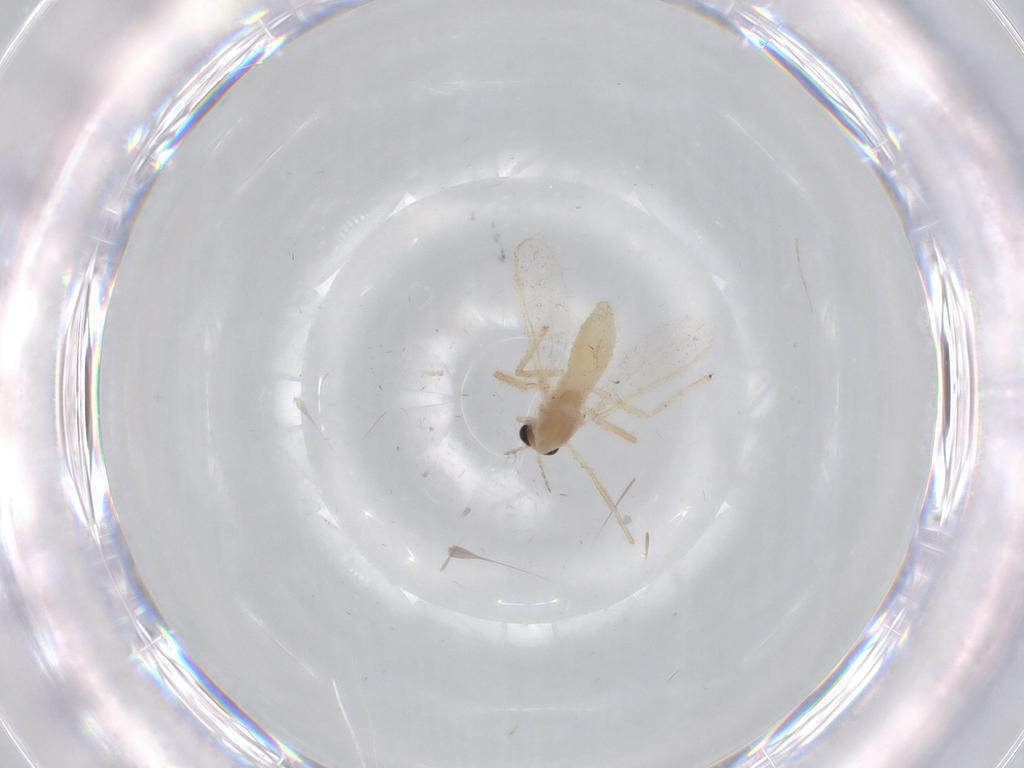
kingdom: Animalia
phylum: Arthropoda
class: Insecta
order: Diptera
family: Chironomidae
